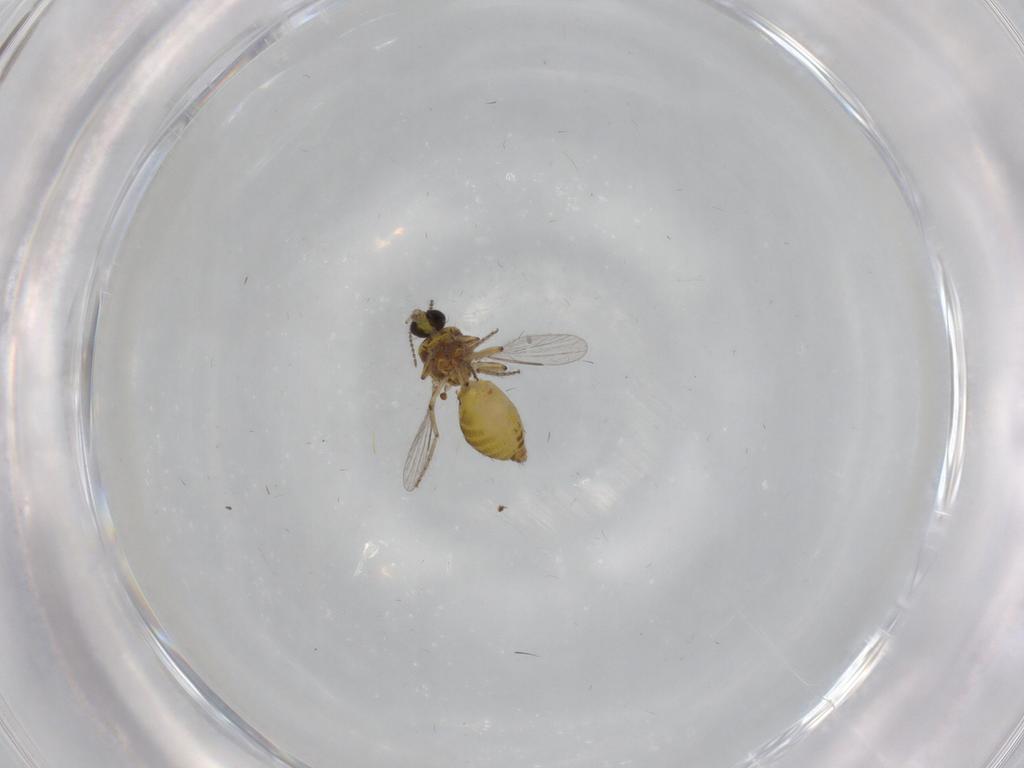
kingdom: Animalia
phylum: Arthropoda
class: Insecta
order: Diptera
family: Ceratopogonidae
